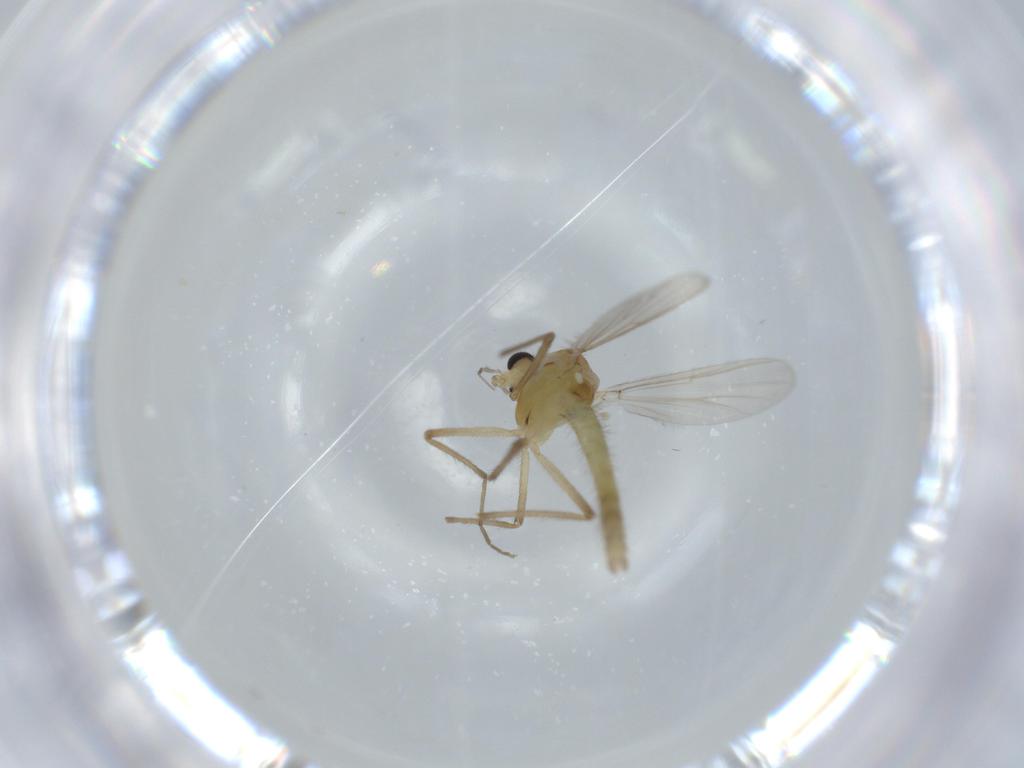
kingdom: Animalia
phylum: Arthropoda
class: Insecta
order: Diptera
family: Chironomidae
